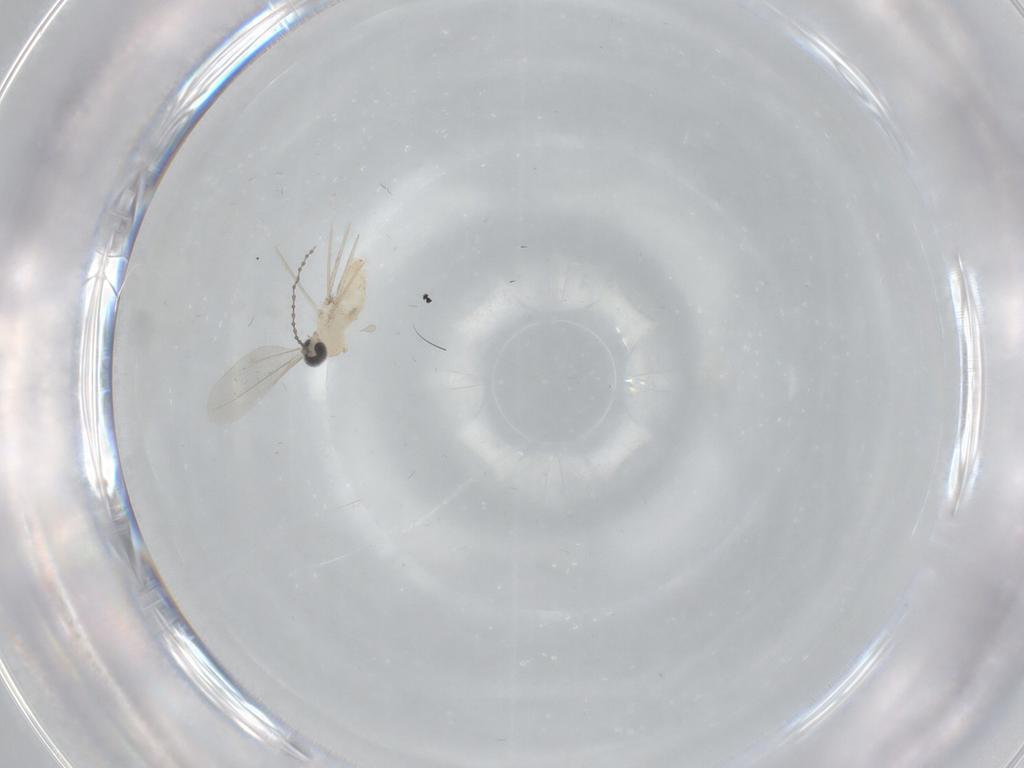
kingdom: Animalia
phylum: Arthropoda
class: Insecta
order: Diptera
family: Cecidomyiidae
